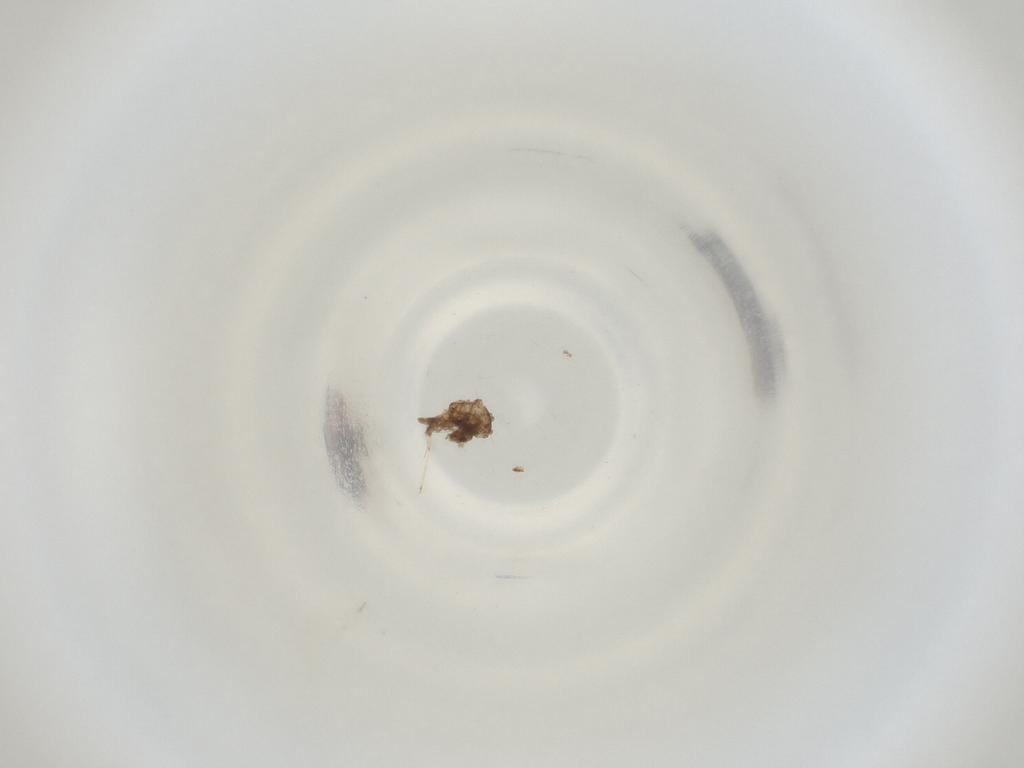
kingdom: Animalia
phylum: Arthropoda
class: Insecta
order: Diptera
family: Cecidomyiidae
